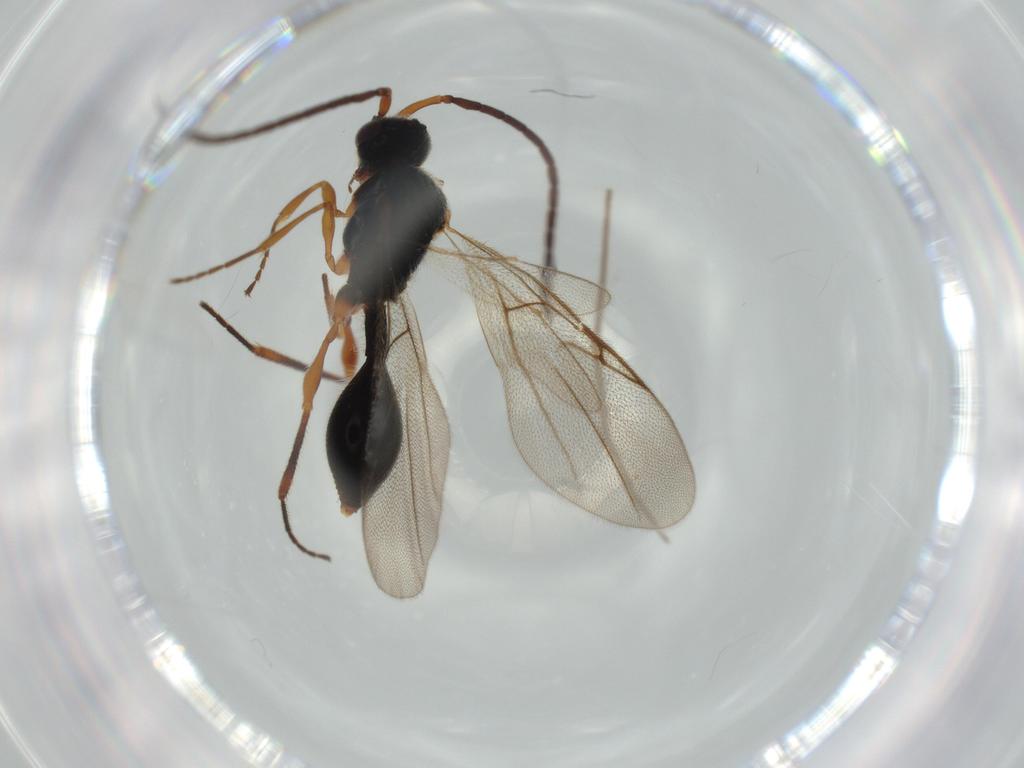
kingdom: Animalia
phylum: Arthropoda
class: Insecta
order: Hymenoptera
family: Ichneumonidae
